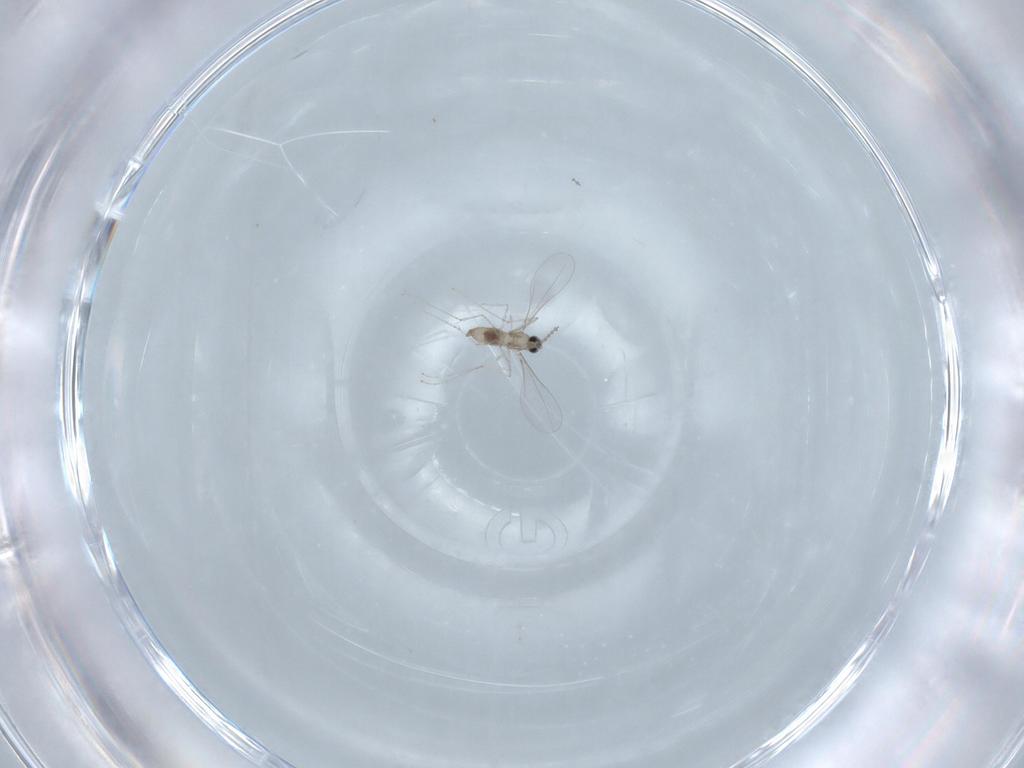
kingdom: Animalia
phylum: Arthropoda
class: Insecta
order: Diptera
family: Cecidomyiidae
